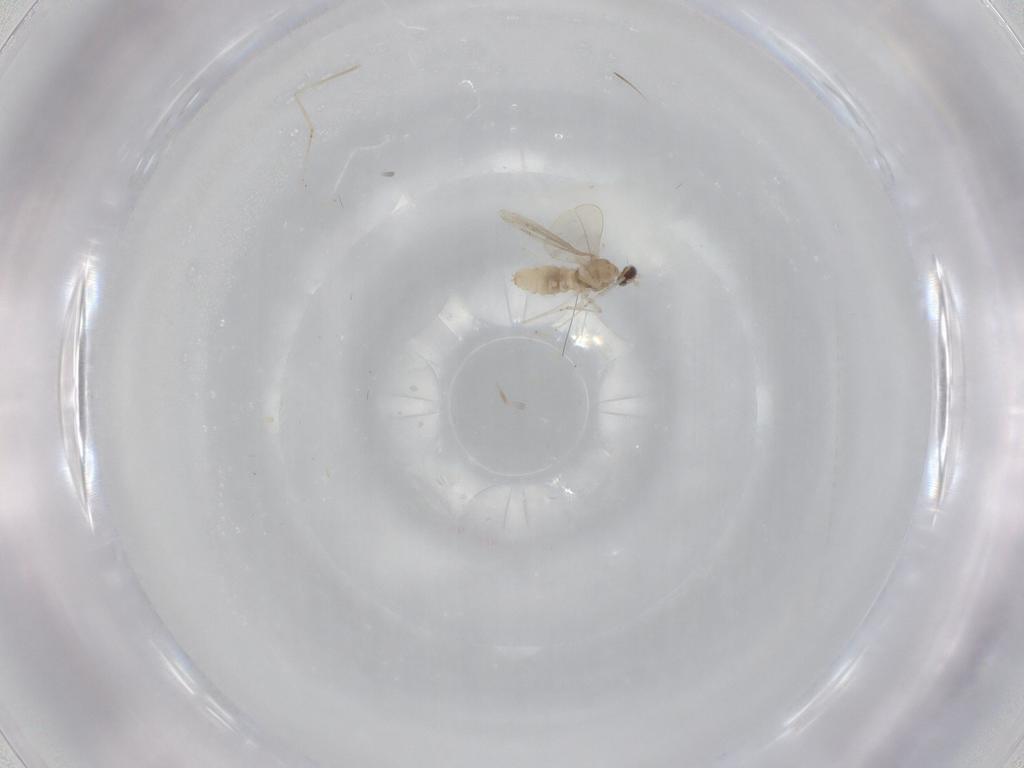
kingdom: Animalia
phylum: Arthropoda
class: Insecta
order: Diptera
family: Cecidomyiidae
